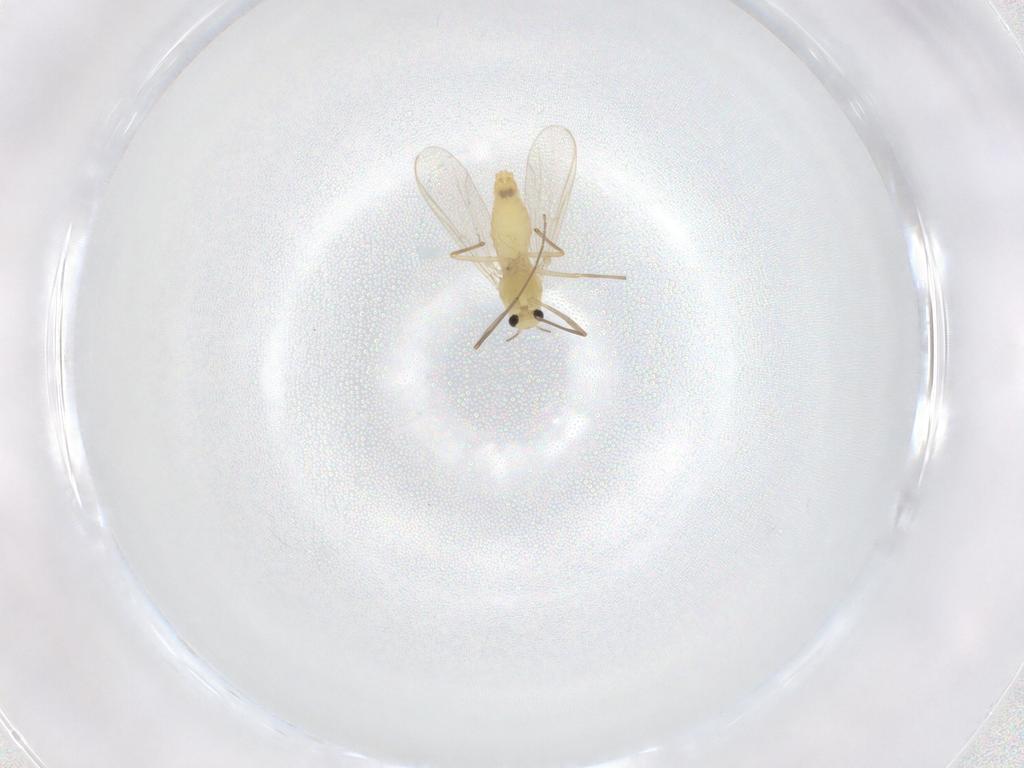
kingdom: Animalia
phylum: Arthropoda
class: Insecta
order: Diptera
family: Chironomidae
